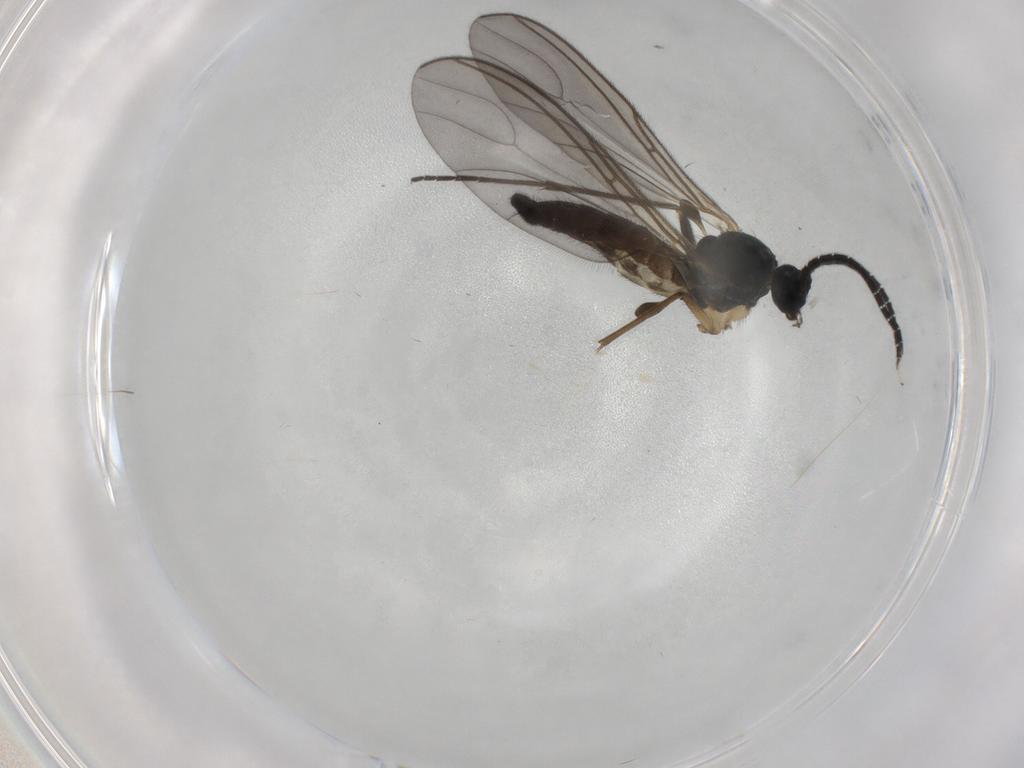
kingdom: Animalia
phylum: Arthropoda
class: Insecta
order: Diptera
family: Sciaridae
